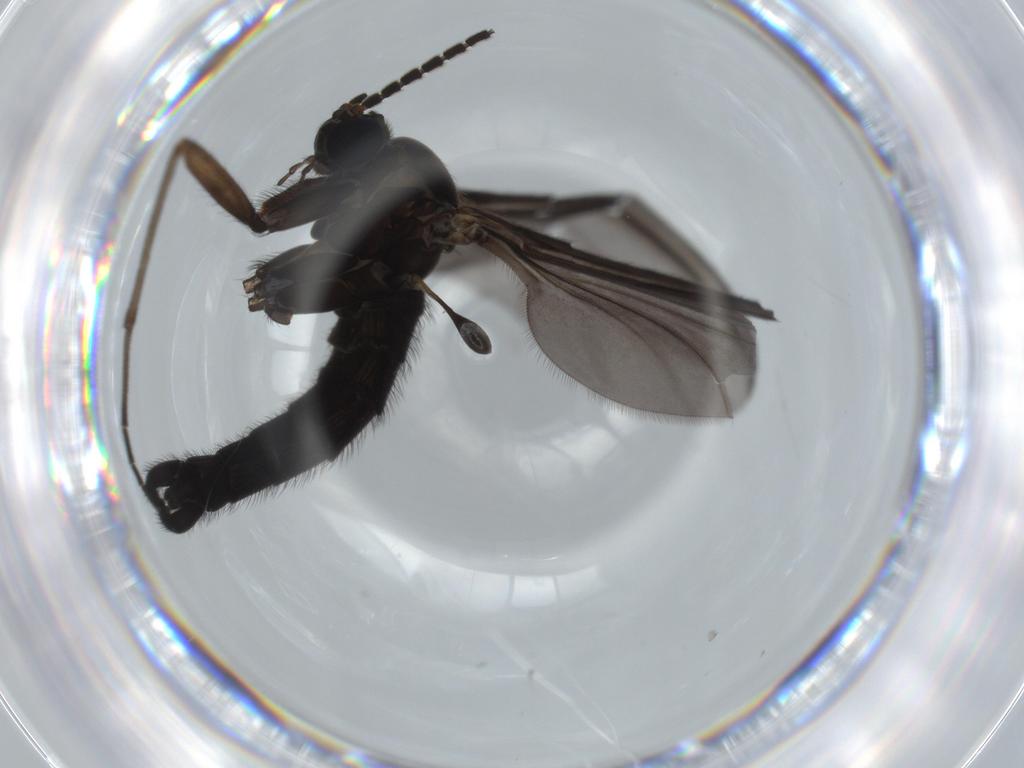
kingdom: Animalia
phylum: Arthropoda
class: Insecta
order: Diptera
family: Sciaridae
